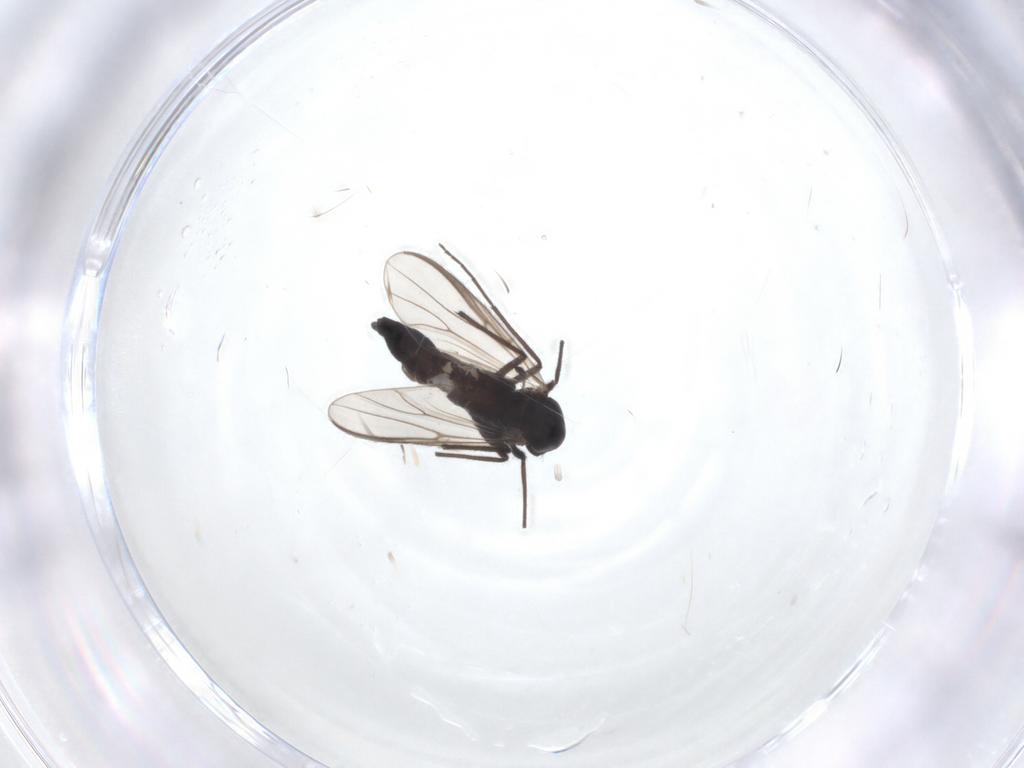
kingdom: Animalia
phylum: Arthropoda
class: Insecta
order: Diptera
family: Chironomidae
